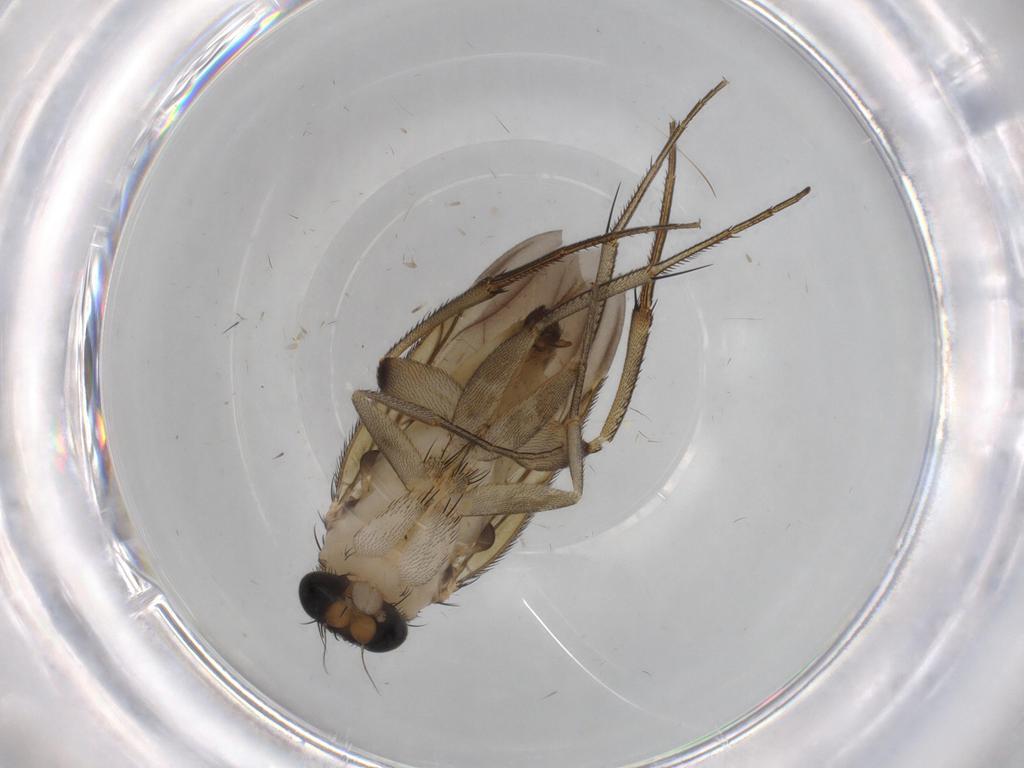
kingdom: Animalia
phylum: Arthropoda
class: Insecta
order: Diptera
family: Phoridae
